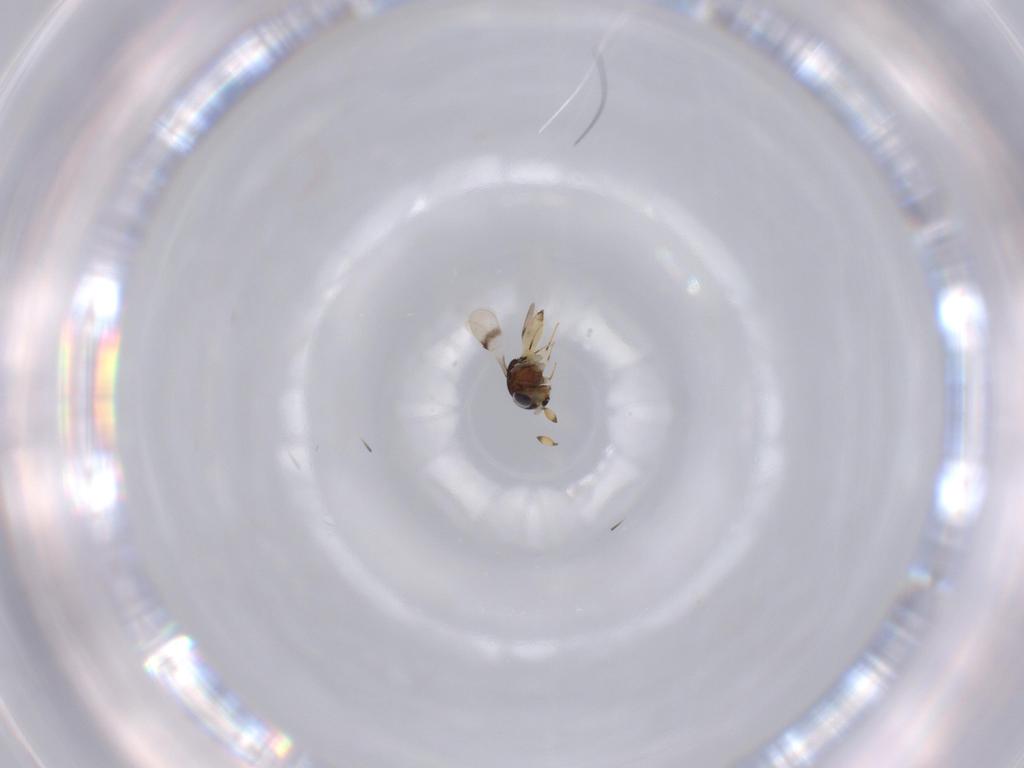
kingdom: Animalia
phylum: Arthropoda
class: Insecta
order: Hymenoptera
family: Scelionidae
